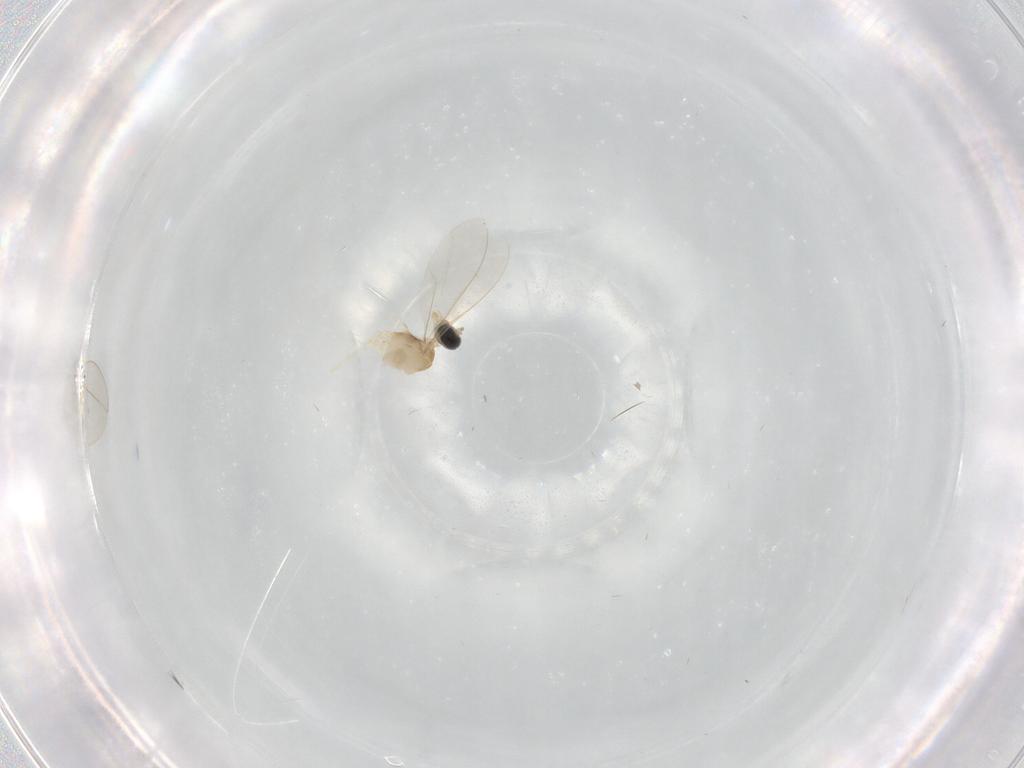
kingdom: Animalia
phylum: Arthropoda
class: Insecta
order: Diptera
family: Cecidomyiidae
